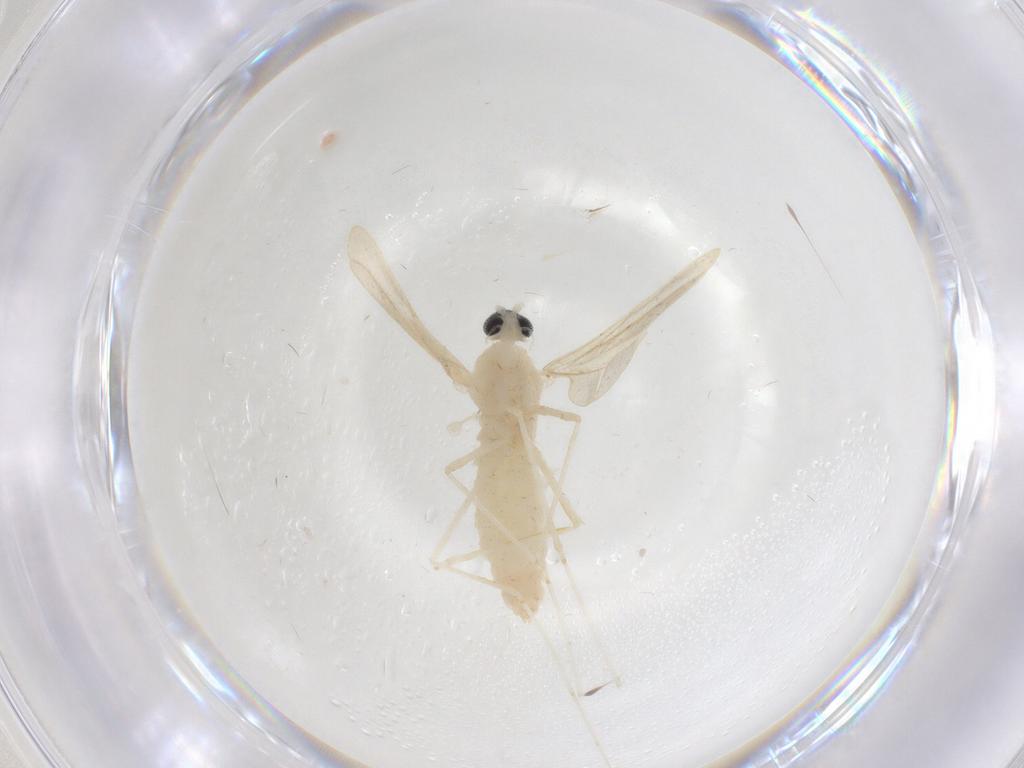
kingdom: Animalia
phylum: Arthropoda
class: Insecta
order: Diptera
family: Cecidomyiidae
